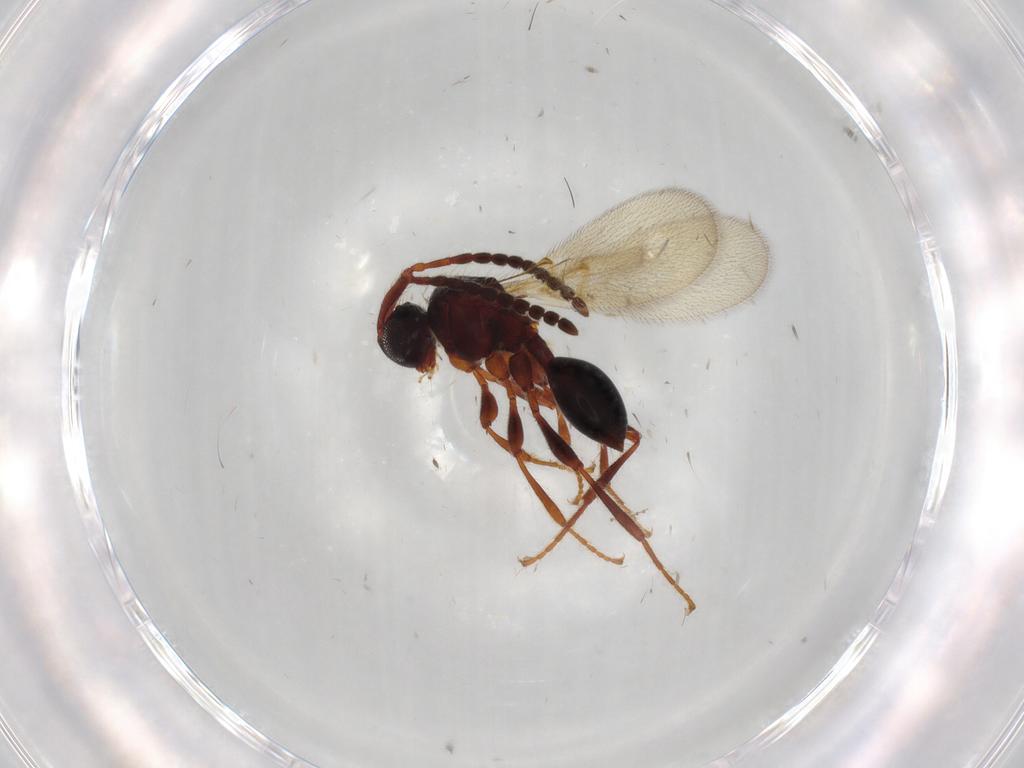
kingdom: Animalia
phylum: Arthropoda
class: Insecta
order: Hymenoptera
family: Diapriidae
